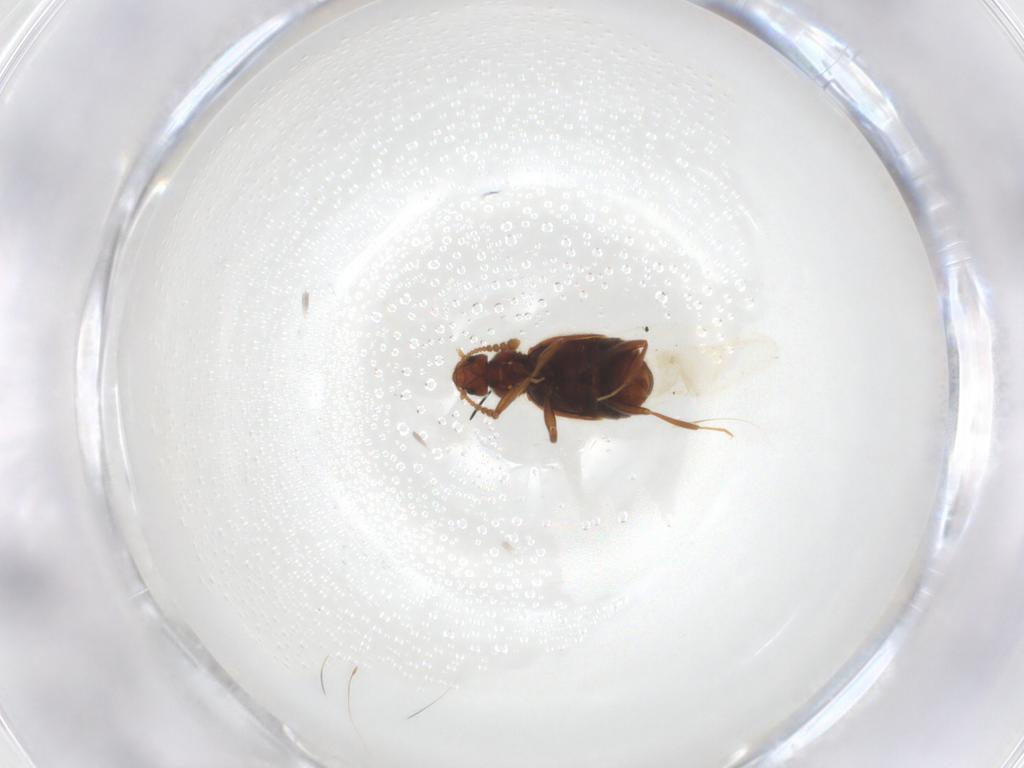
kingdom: Animalia
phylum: Arthropoda
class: Insecta
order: Coleoptera
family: Staphylinidae
